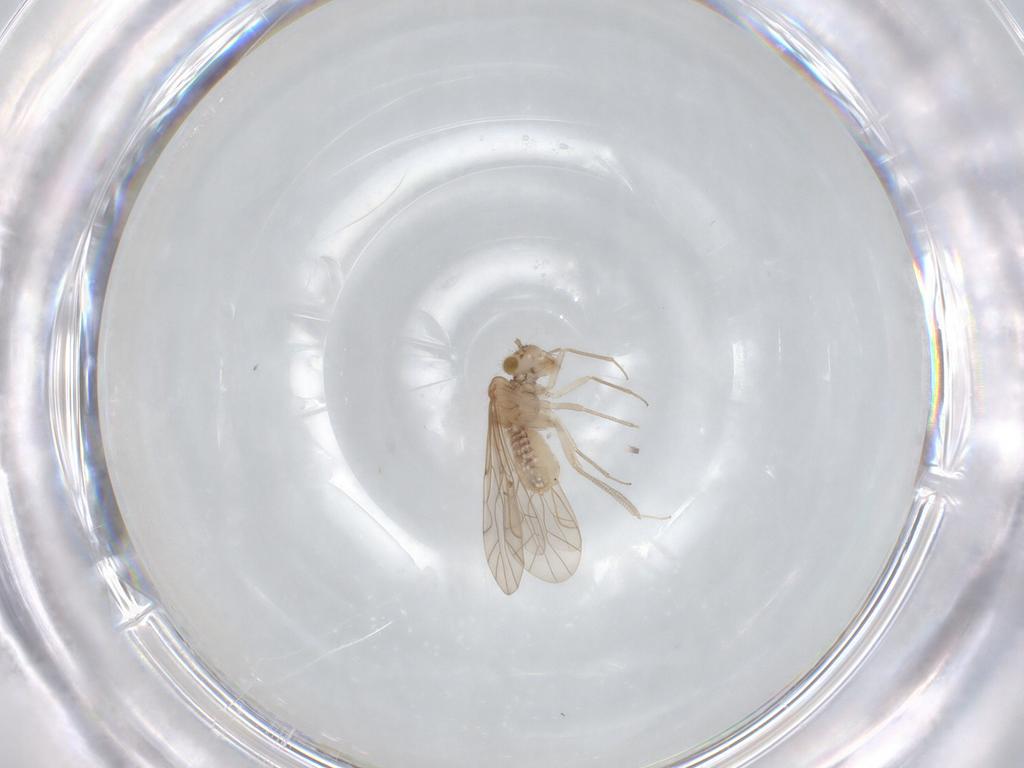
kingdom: Animalia
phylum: Arthropoda
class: Insecta
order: Psocodea
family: Lachesillidae
